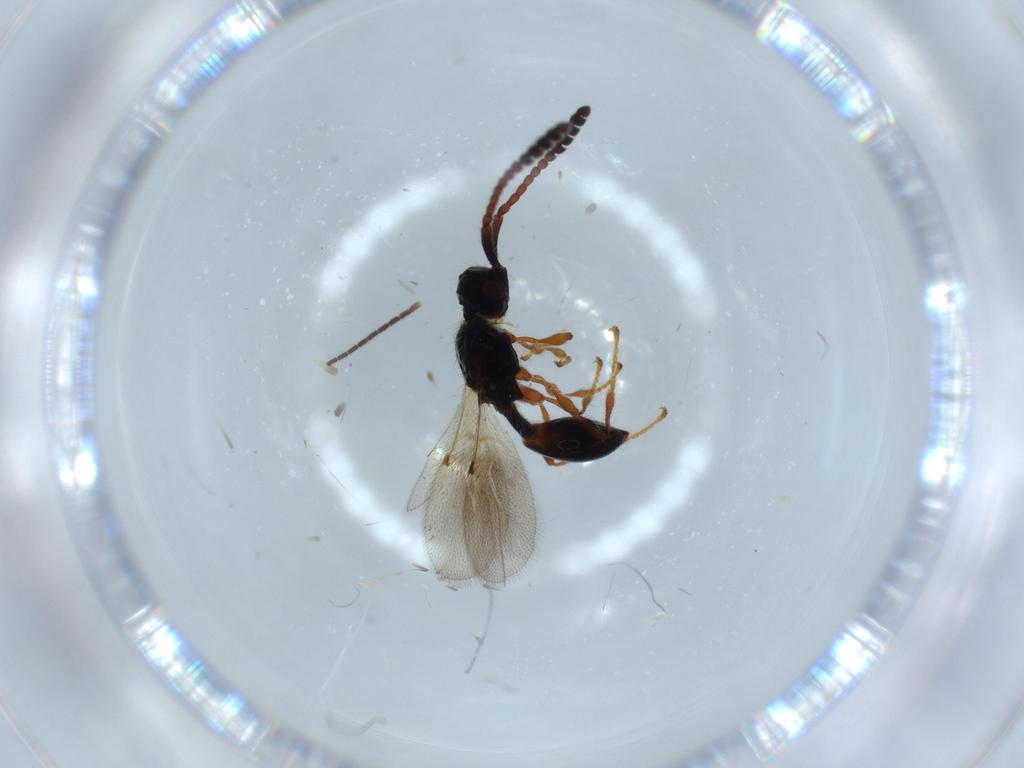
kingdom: Animalia
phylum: Arthropoda
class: Insecta
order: Hymenoptera
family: Scelionidae
